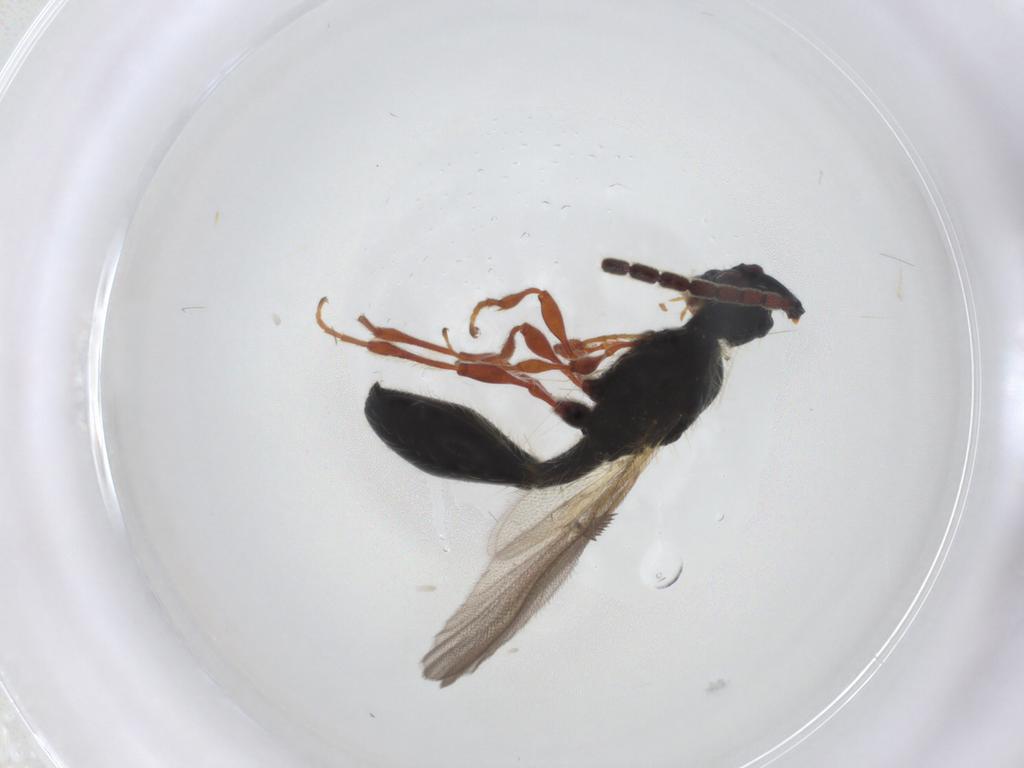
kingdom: Animalia
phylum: Arthropoda
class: Insecta
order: Hymenoptera
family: Diapriidae
